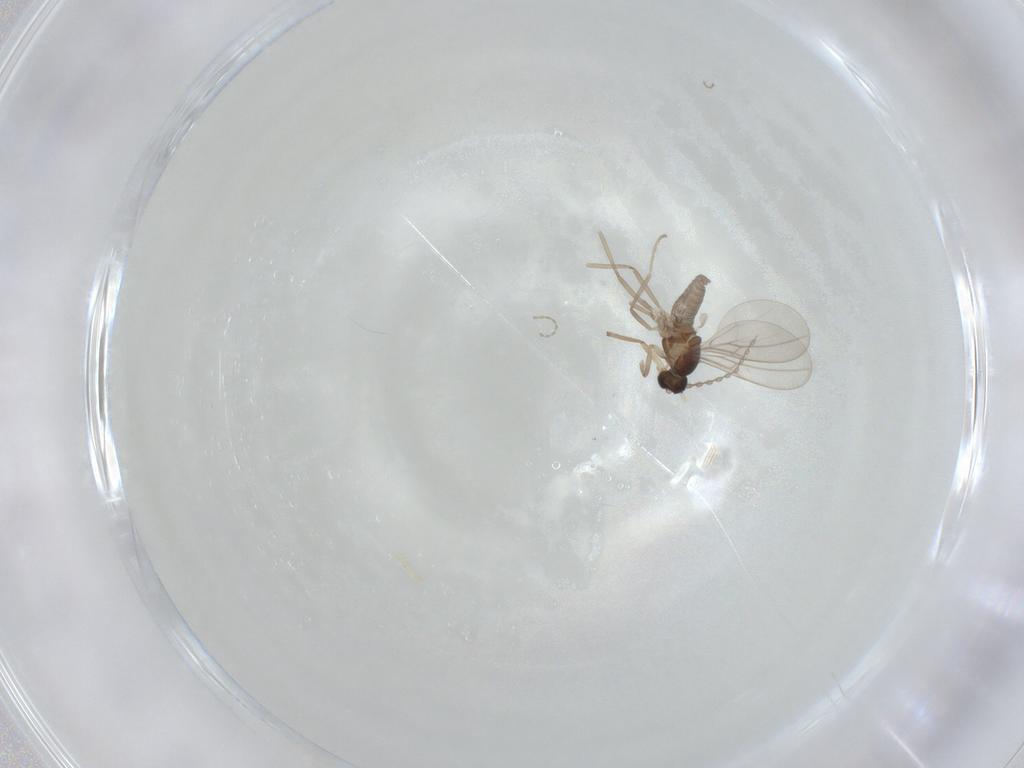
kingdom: Animalia
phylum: Arthropoda
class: Insecta
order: Diptera
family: Cecidomyiidae
